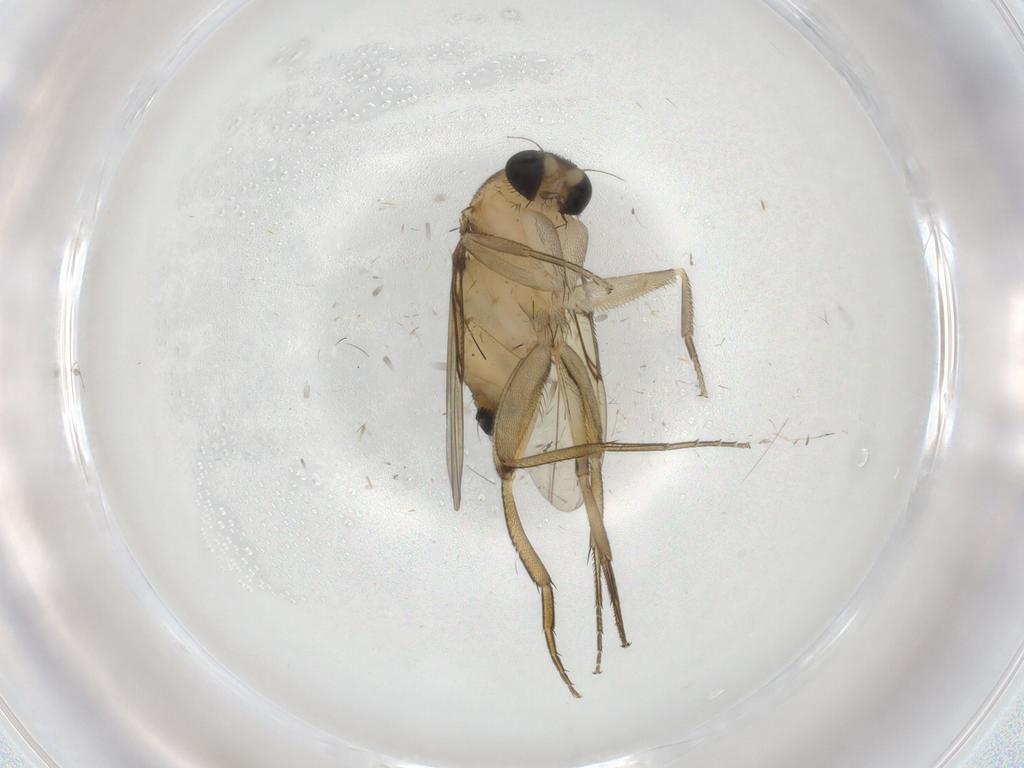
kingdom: Animalia
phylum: Arthropoda
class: Insecta
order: Diptera
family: Phoridae
